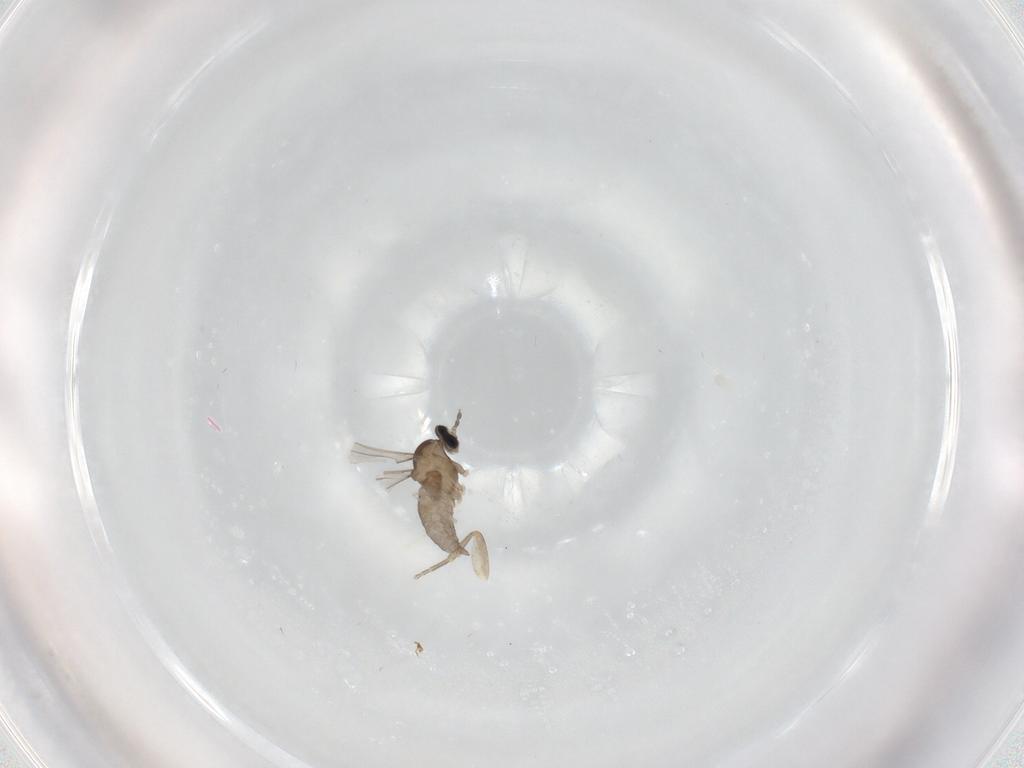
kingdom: Animalia
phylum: Arthropoda
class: Insecta
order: Diptera
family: Phoridae
